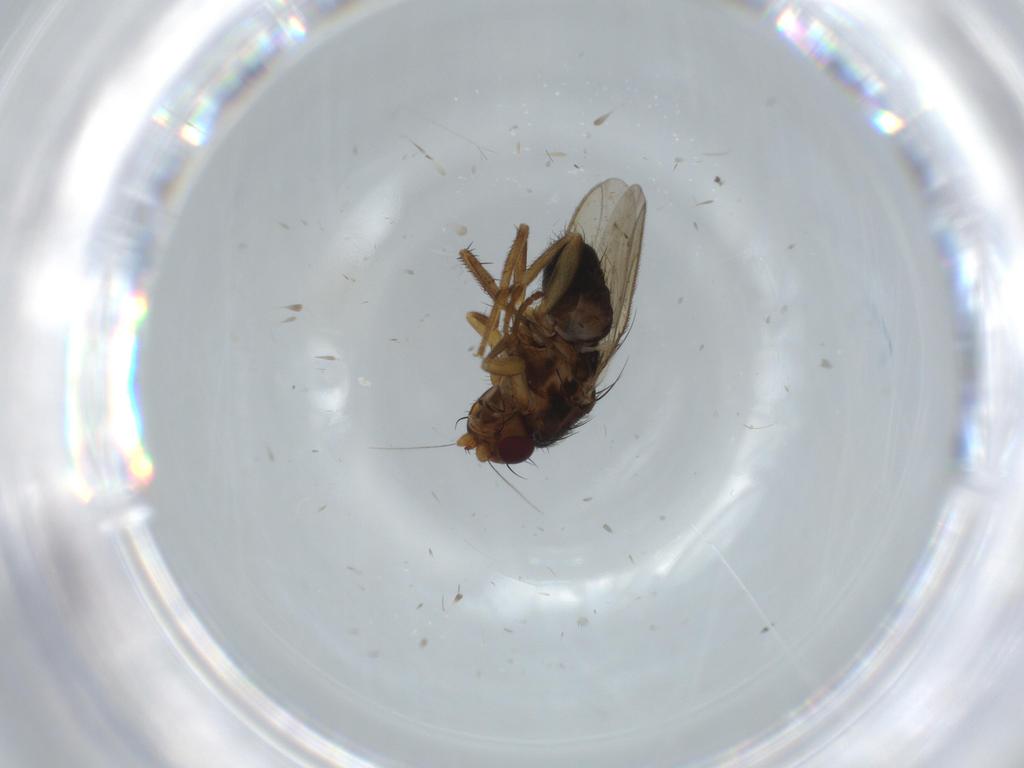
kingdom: Animalia
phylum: Arthropoda
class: Insecta
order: Diptera
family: Sphaeroceridae
